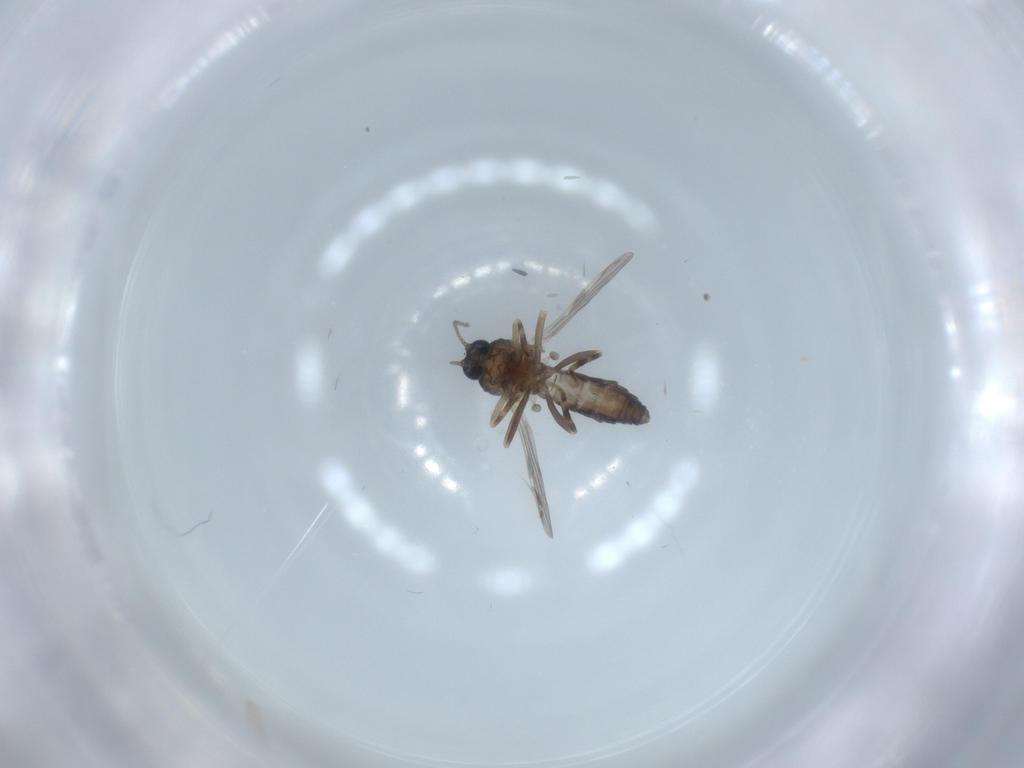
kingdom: Animalia
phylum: Arthropoda
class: Insecta
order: Diptera
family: Ceratopogonidae
